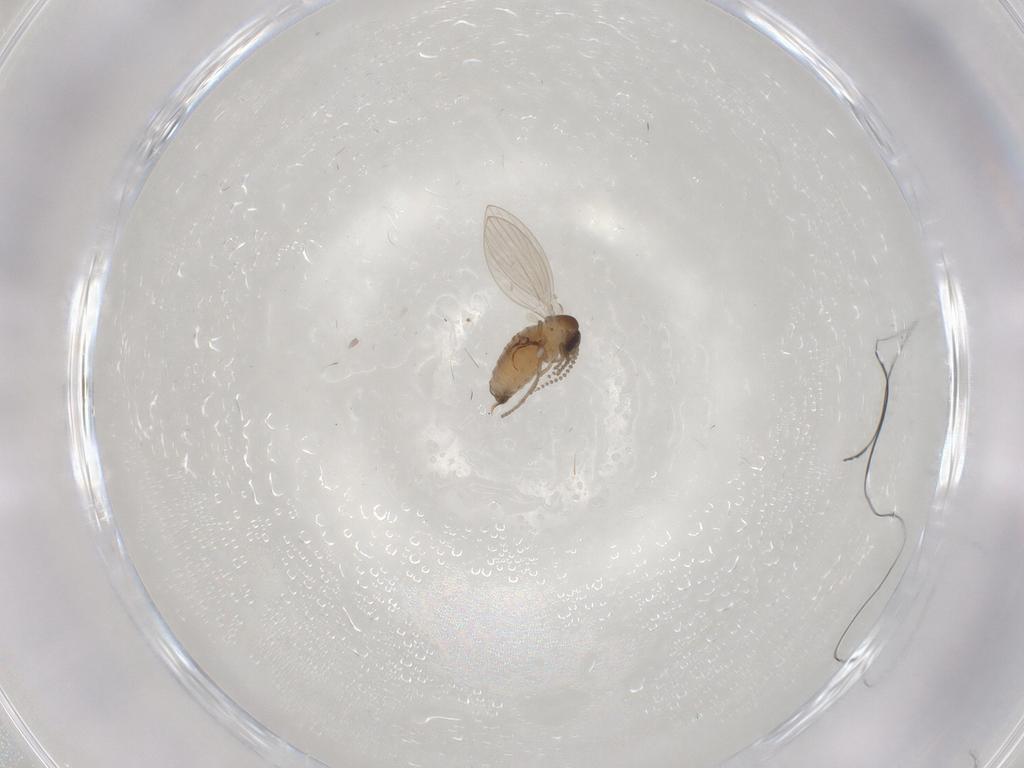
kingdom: Animalia
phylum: Arthropoda
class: Insecta
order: Diptera
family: Psychodidae
